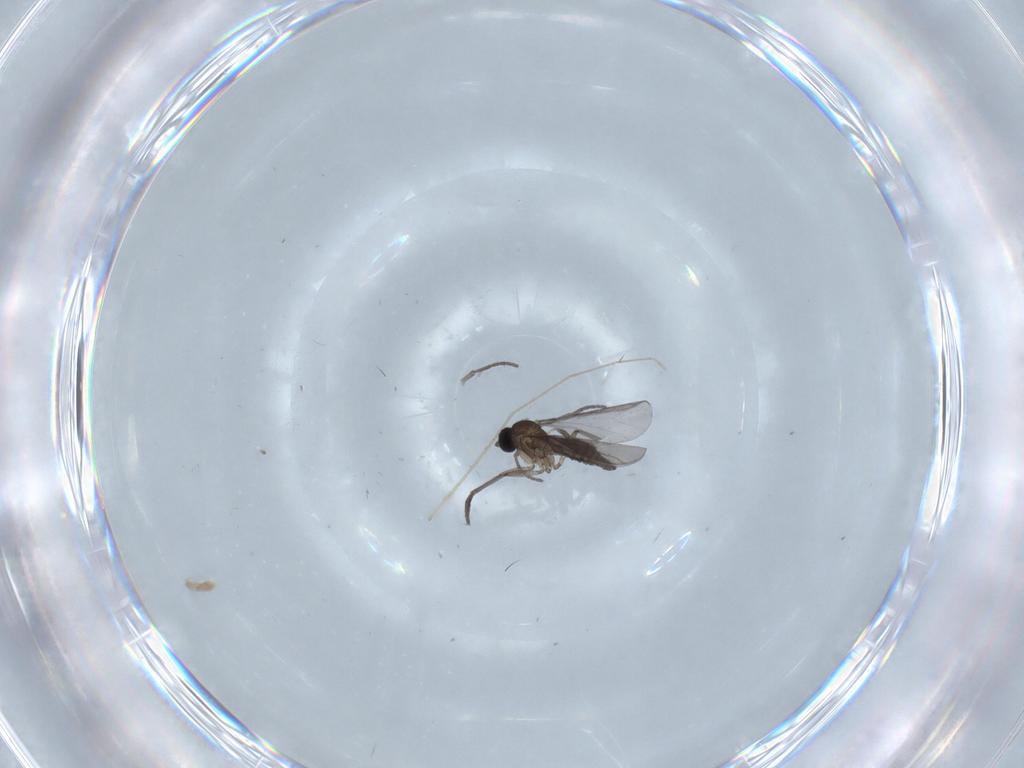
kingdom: Animalia
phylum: Arthropoda
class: Insecta
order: Diptera
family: Chironomidae
